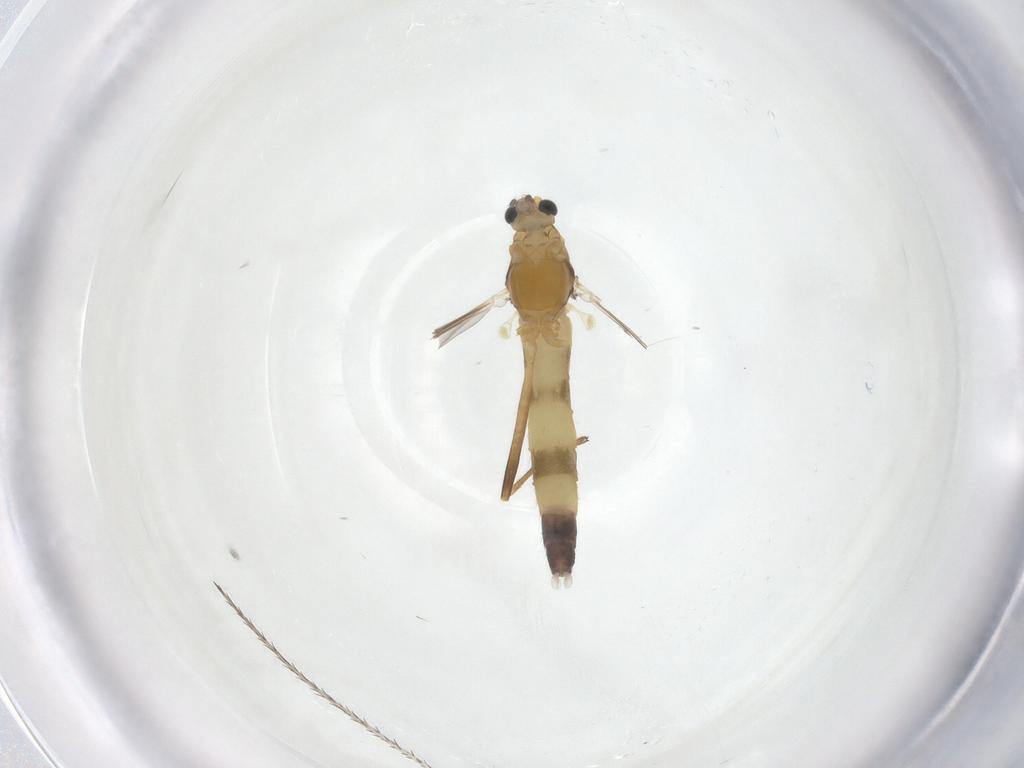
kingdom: Animalia
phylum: Arthropoda
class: Insecta
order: Diptera
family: Chironomidae
